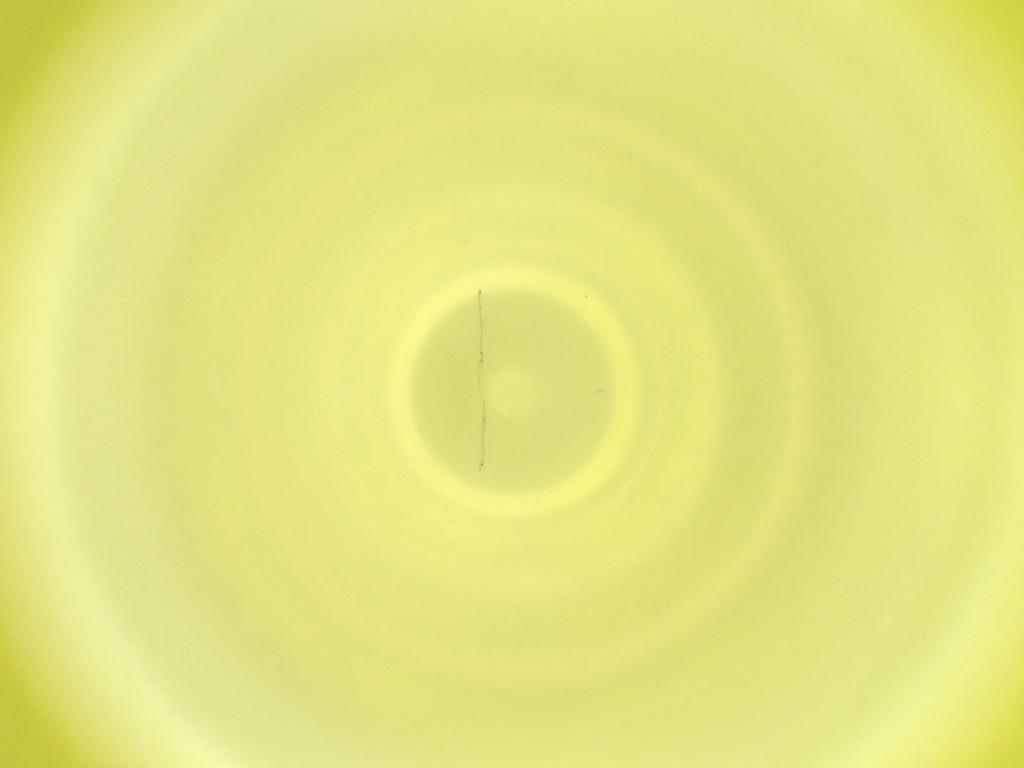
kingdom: Animalia
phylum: Arthropoda
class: Insecta
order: Diptera
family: Cecidomyiidae
